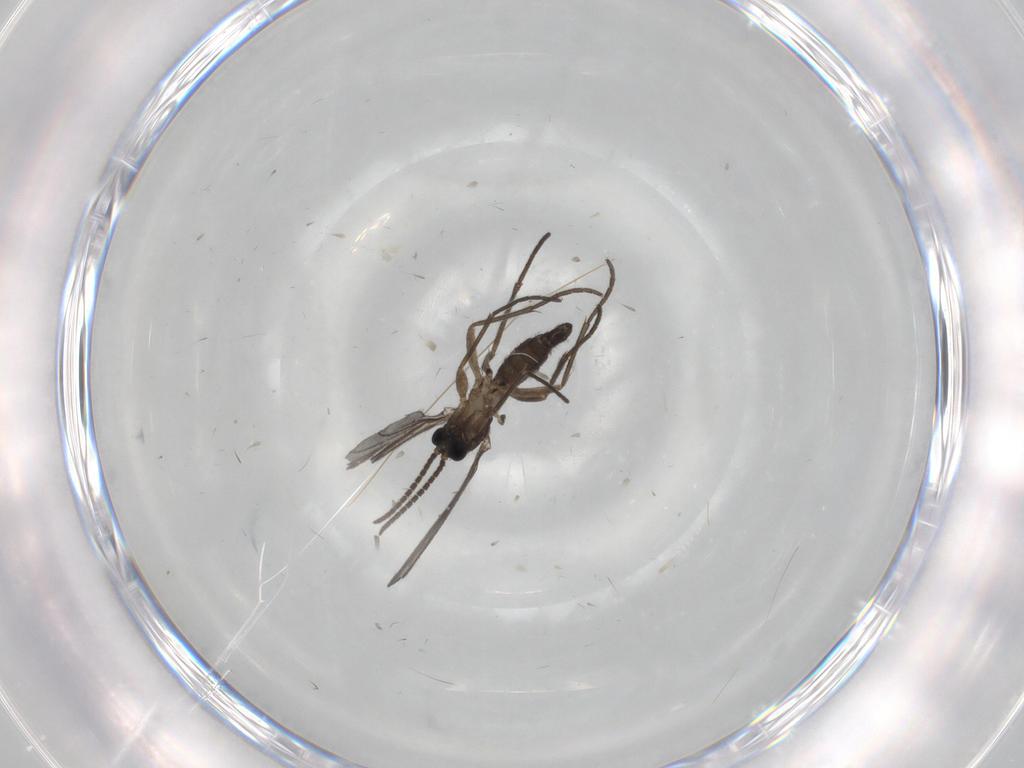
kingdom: Animalia
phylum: Arthropoda
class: Insecta
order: Diptera
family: Sciaridae
